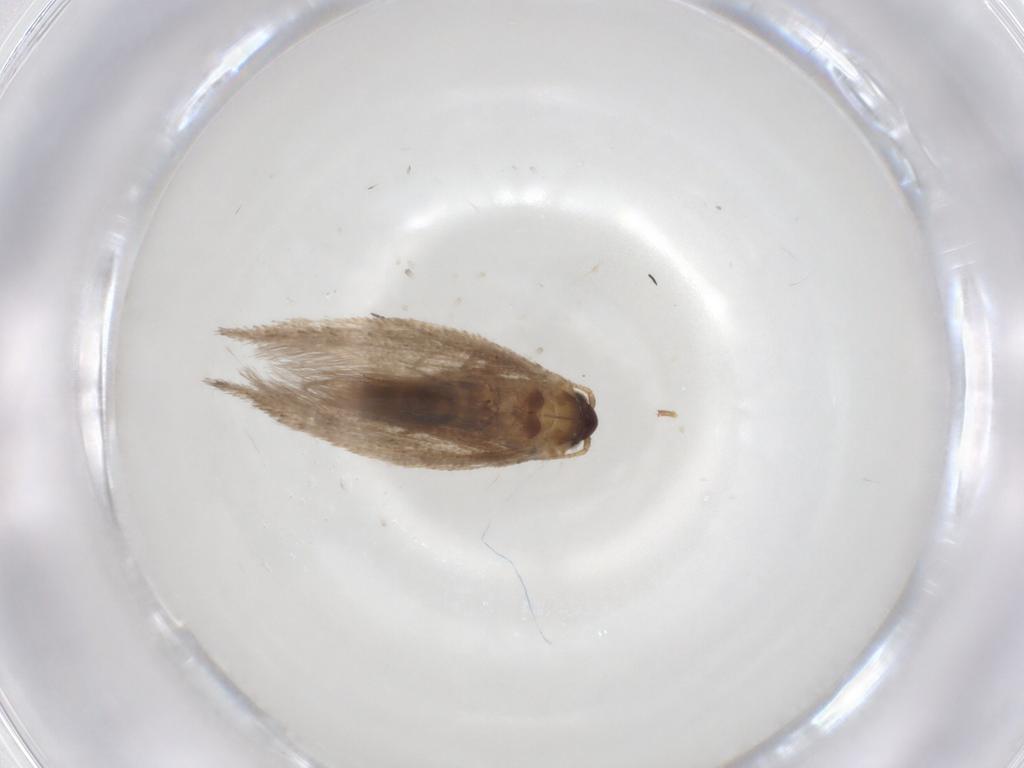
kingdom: Animalia
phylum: Arthropoda
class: Insecta
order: Lepidoptera
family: Nepticulidae
